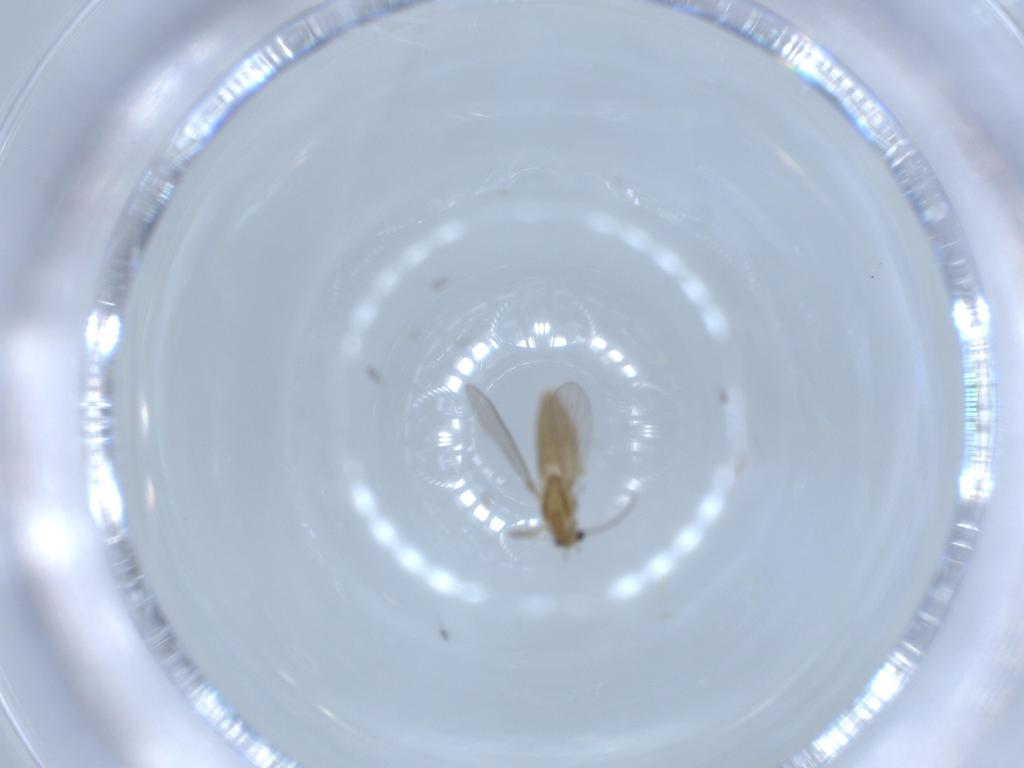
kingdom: Animalia
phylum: Arthropoda
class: Insecta
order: Diptera
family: Chironomidae
